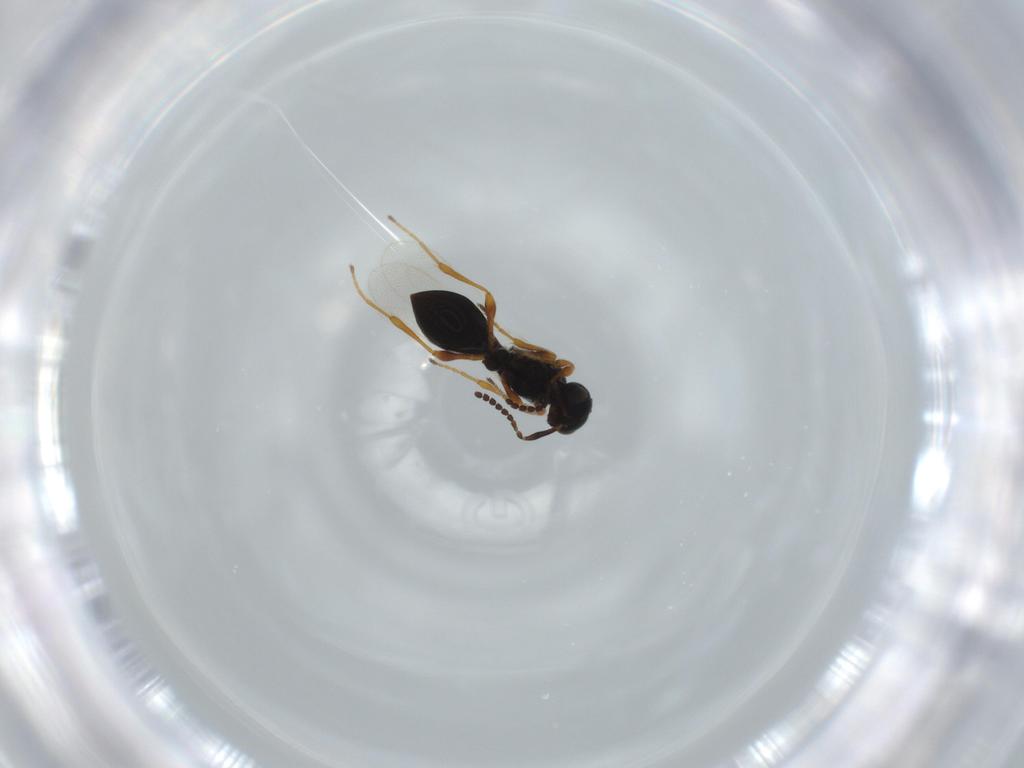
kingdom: Animalia
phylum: Arthropoda
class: Insecta
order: Hymenoptera
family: Platygastridae
